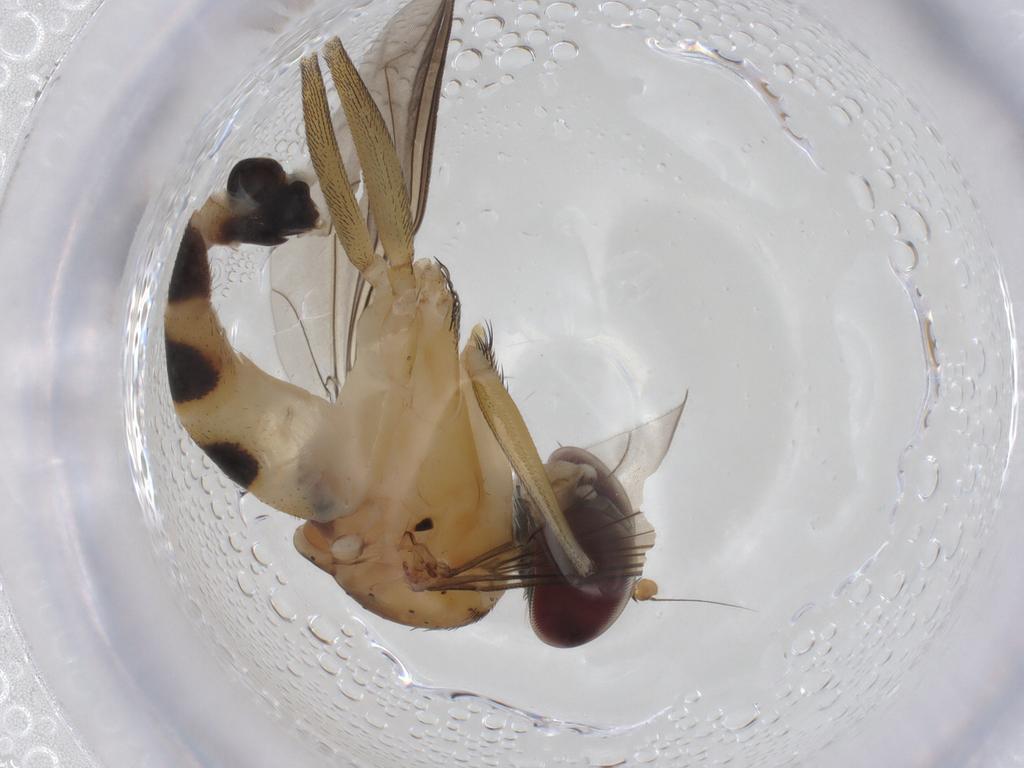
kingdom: Animalia
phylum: Arthropoda
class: Insecta
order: Diptera
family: Dolichopodidae
